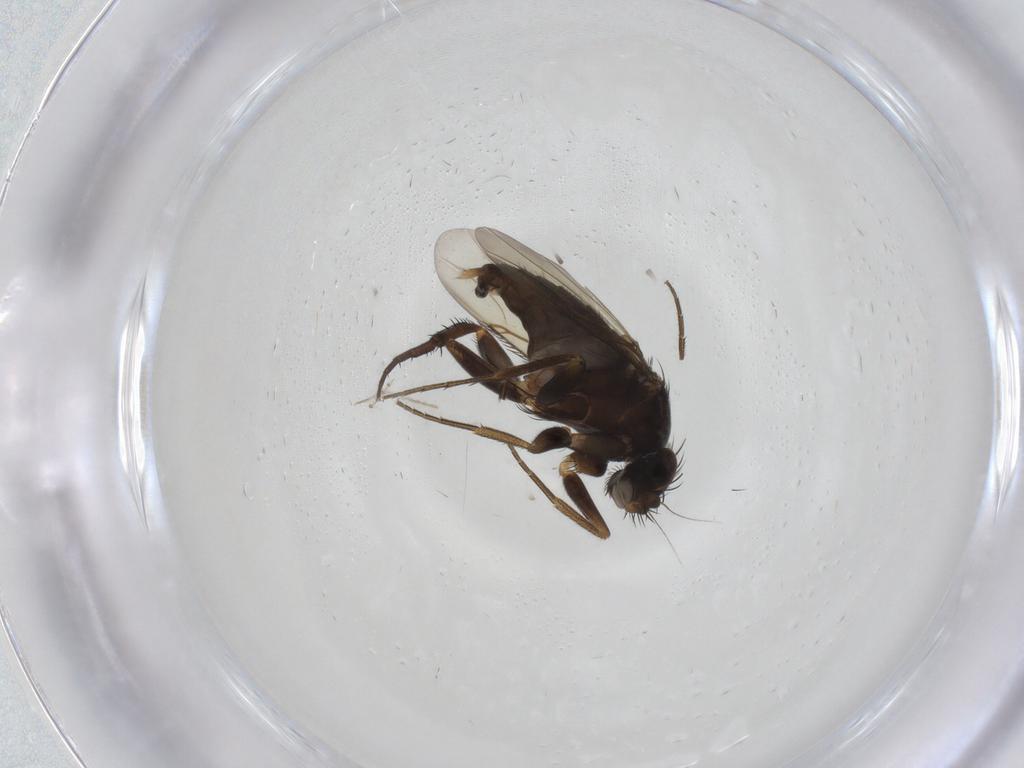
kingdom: Animalia
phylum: Arthropoda
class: Insecta
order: Diptera
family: Phoridae
